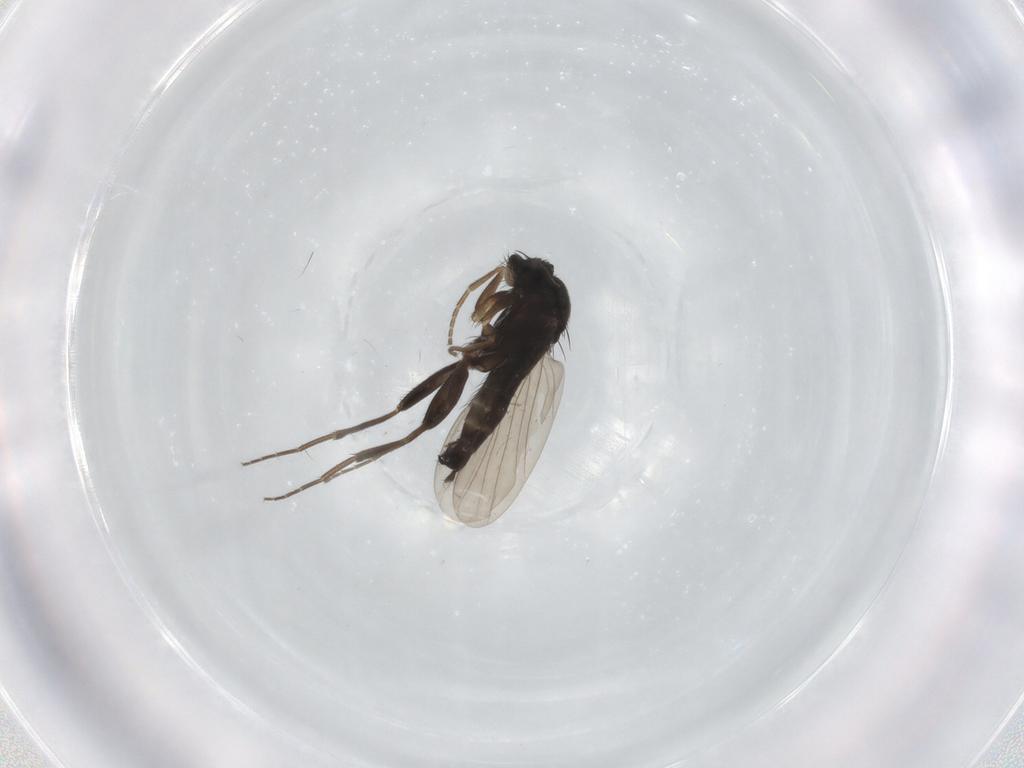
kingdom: Animalia
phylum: Arthropoda
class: Insecta
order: Diptera
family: Phoridae
